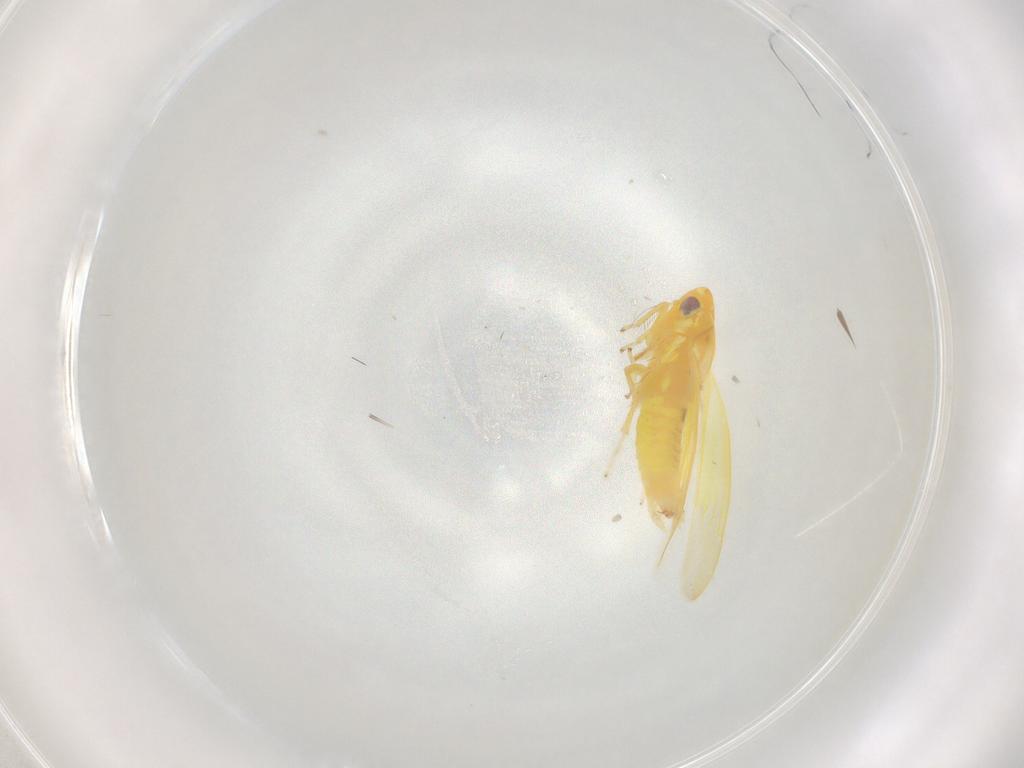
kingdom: Animalia
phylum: Arthropoda
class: Insecta
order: Hemiptera
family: Cicadellidae
